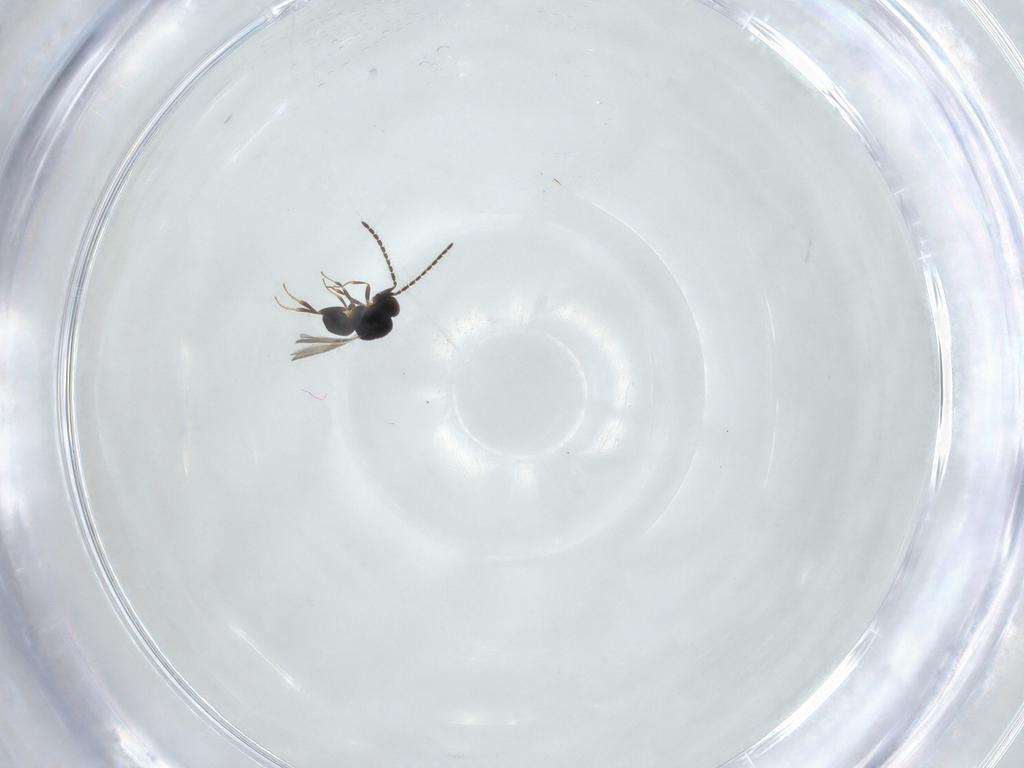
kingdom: Animalia
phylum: Arthropoda
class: Insecta
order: Hymenoptera
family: Ceraphronidae
